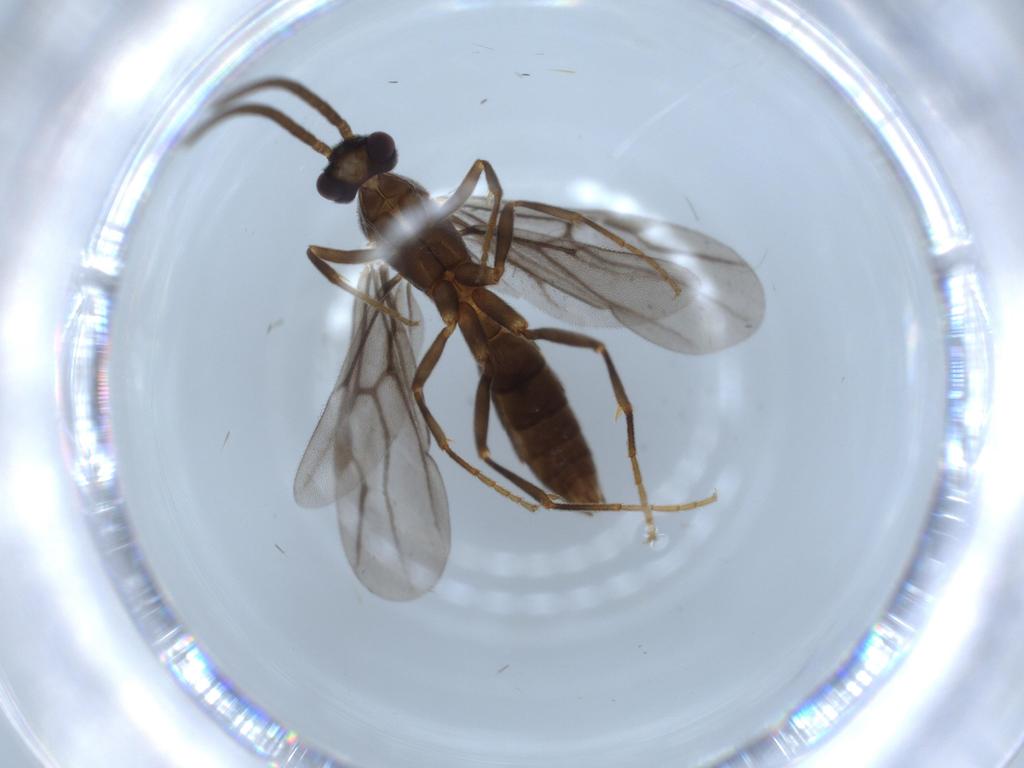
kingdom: Animalia
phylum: Arthropoda
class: Insecta
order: Hymenoptera
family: Formicidae
